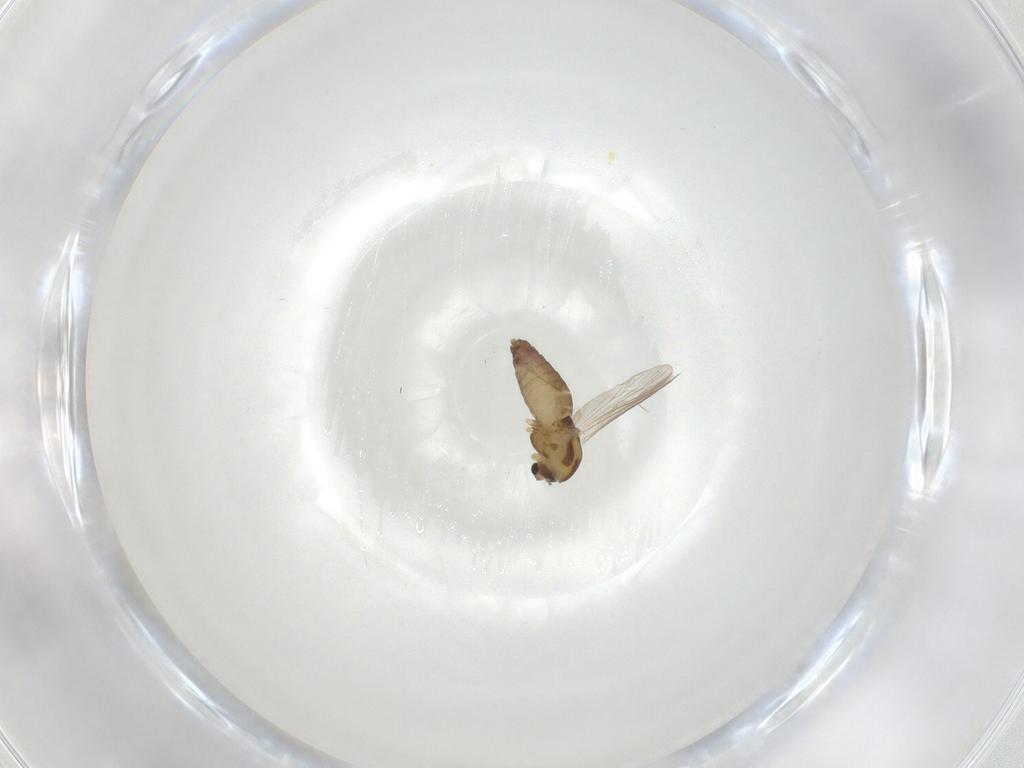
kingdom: Animalia
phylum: Arthropoda
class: Insecta
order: Diptera
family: Chironomidae
